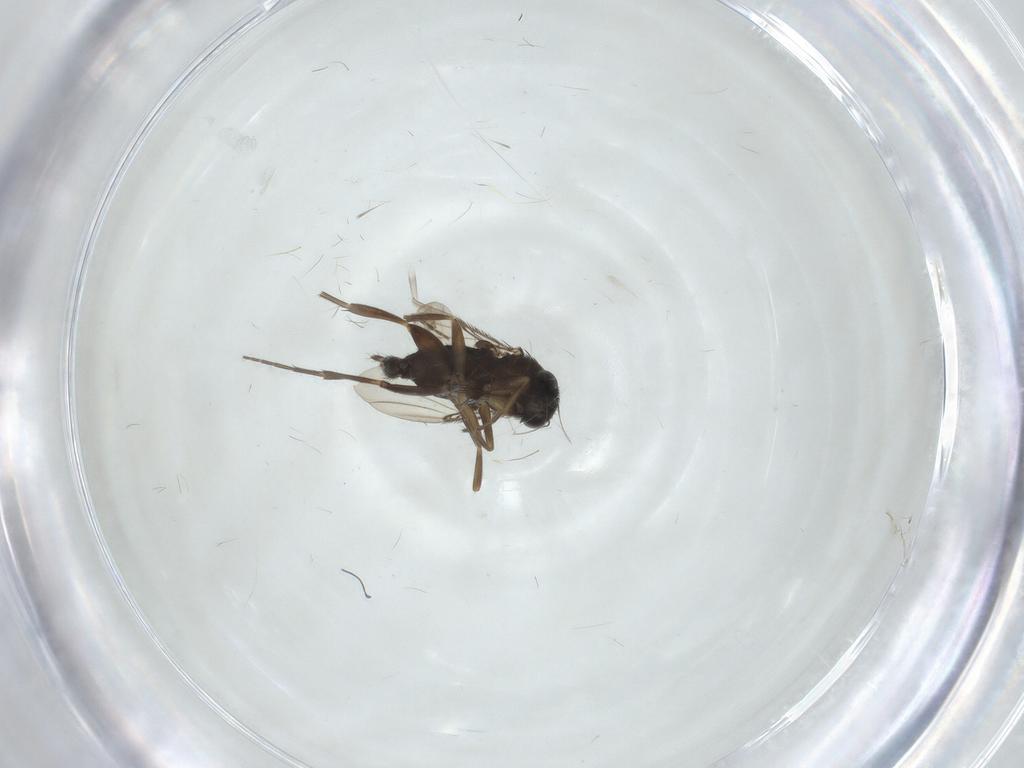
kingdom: Animalia
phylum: Arthropoda
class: Insecta
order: Diptera
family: Phoridae
